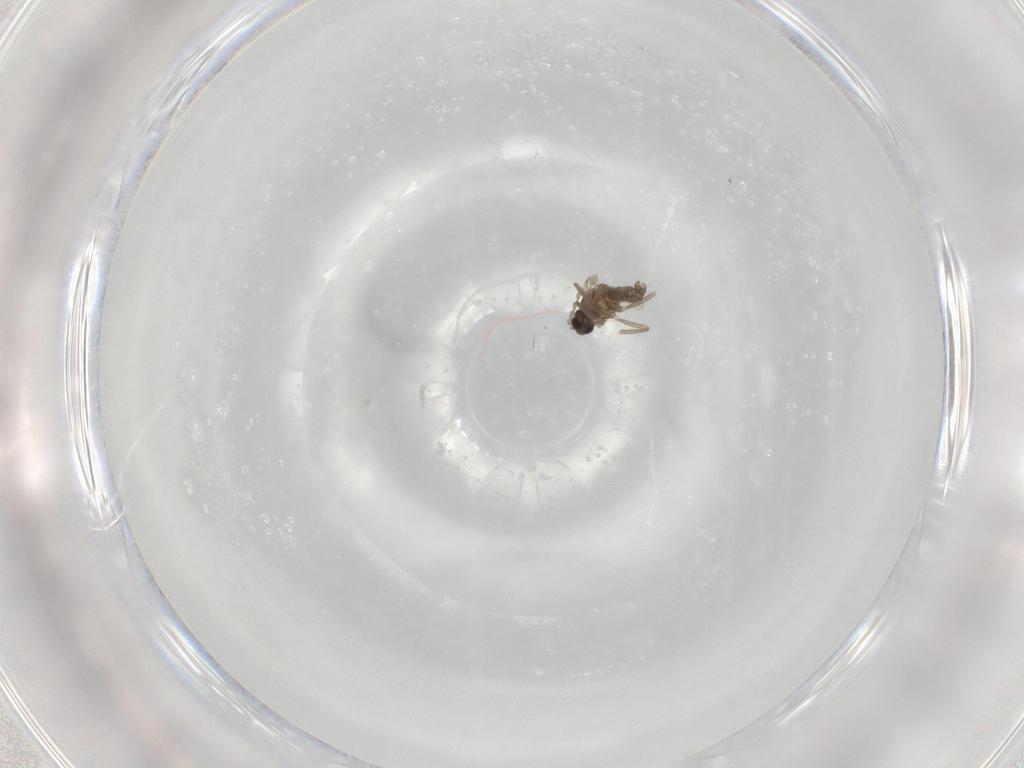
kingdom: Animalia
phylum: Arthropoda
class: Insecta
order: Diptera
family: Cecidomyiidae
